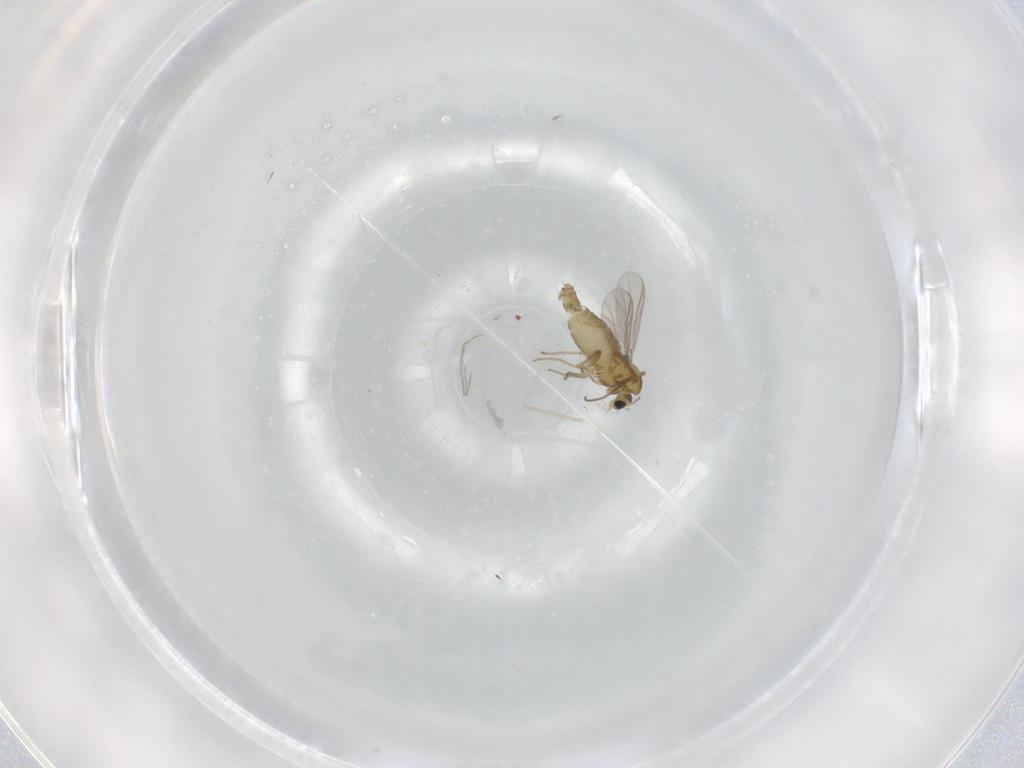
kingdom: Animalia
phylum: Arthropoda
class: Insecta
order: Diptera
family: Chironomidae
